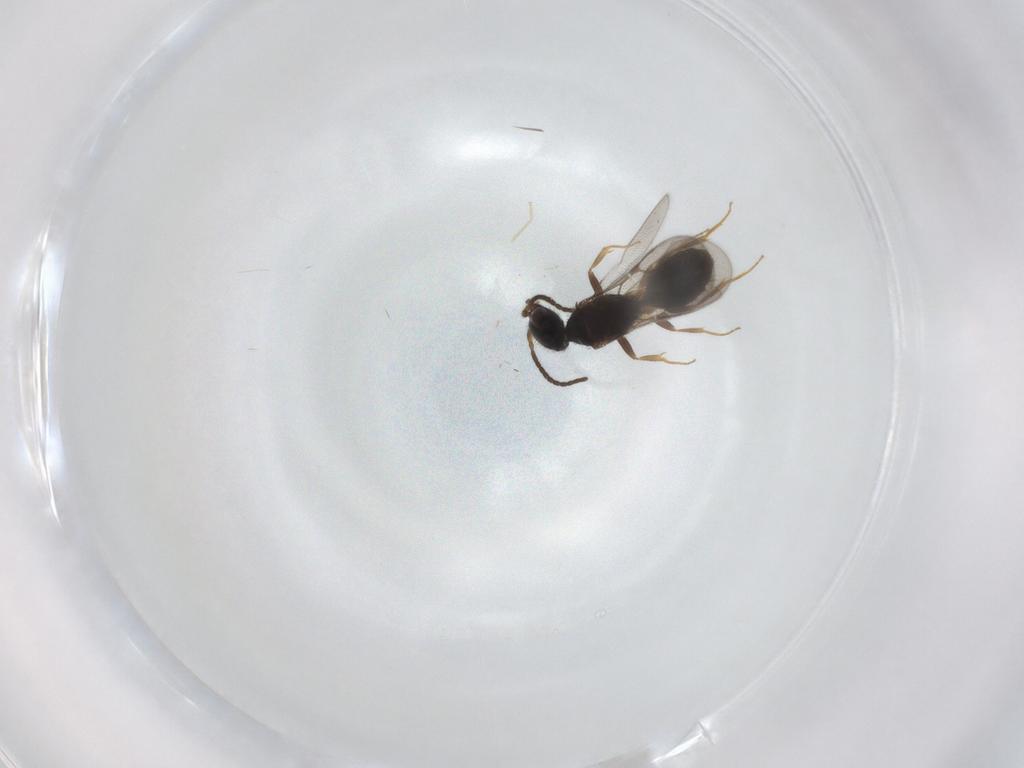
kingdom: Animalia
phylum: Arthropoda
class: Insecta
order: Hymenoptera
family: Bethylidae
